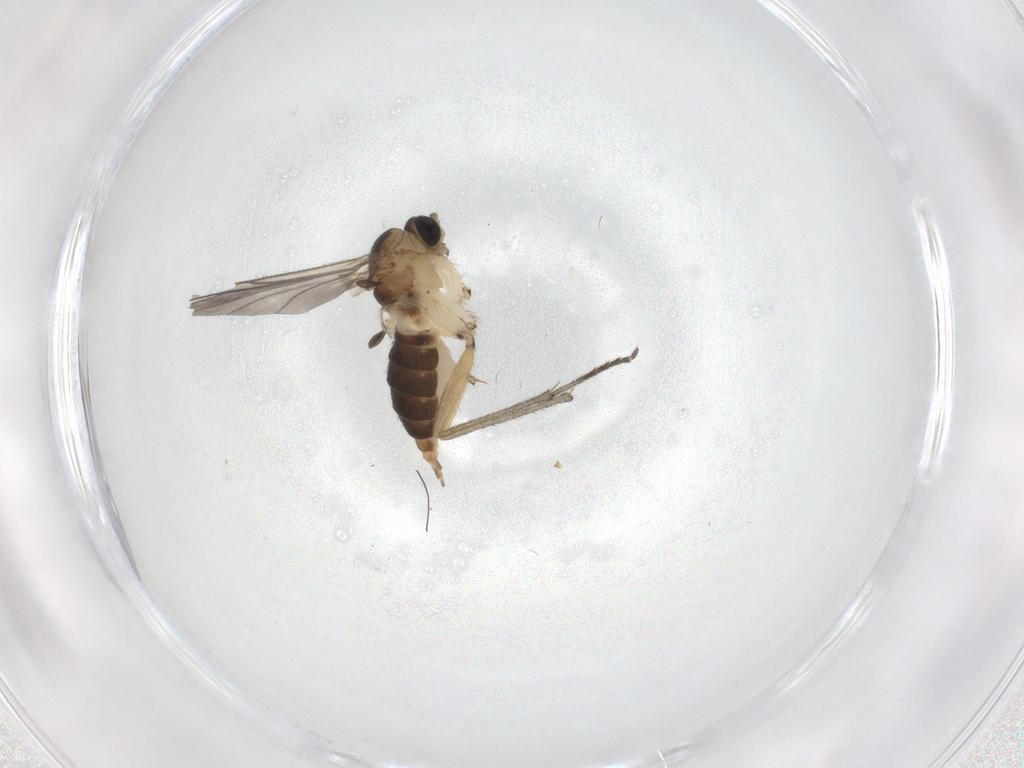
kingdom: Animalia
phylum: Arthropoda
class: Insecta
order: Diptera
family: Sciaridae
